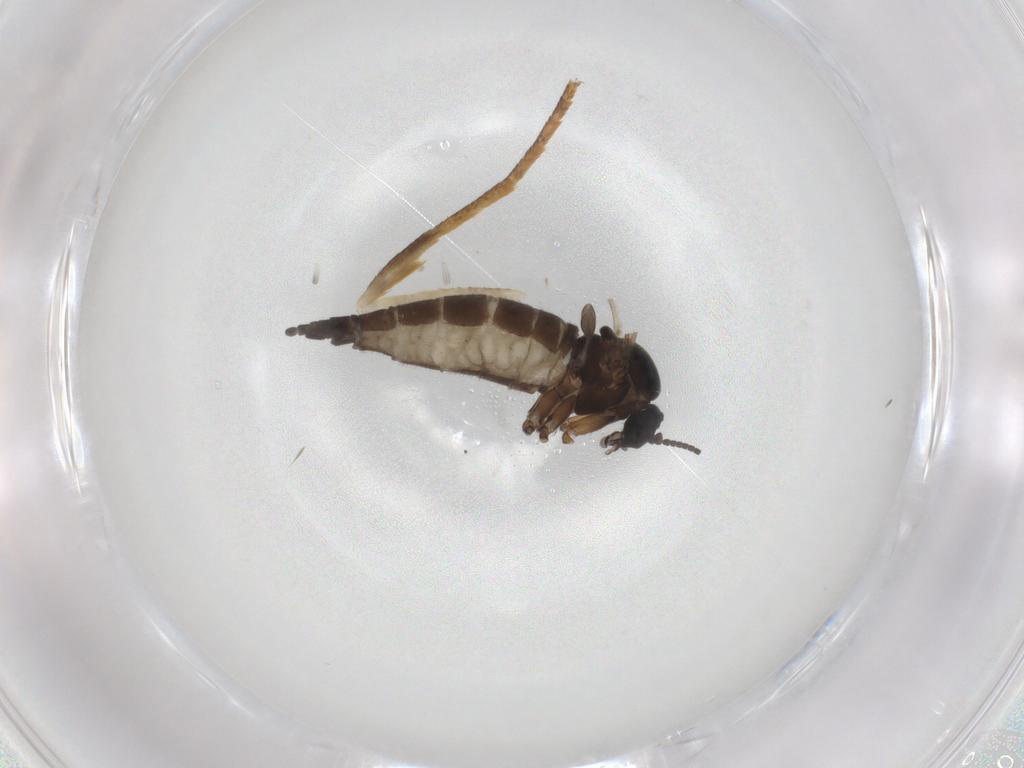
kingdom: Animalia
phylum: Arthropoda
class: Insecta
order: Diptera
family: Sciaridae
